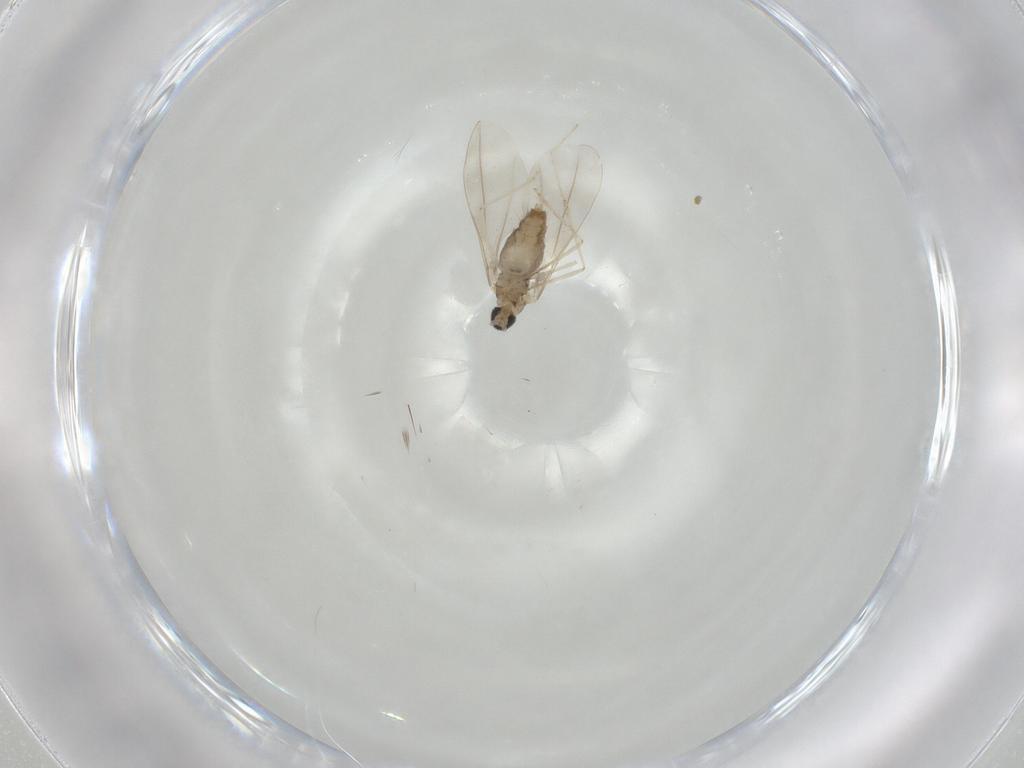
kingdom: Animalia
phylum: Arthropoda
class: Insecta
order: Diptera
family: Cecidomyiidae
